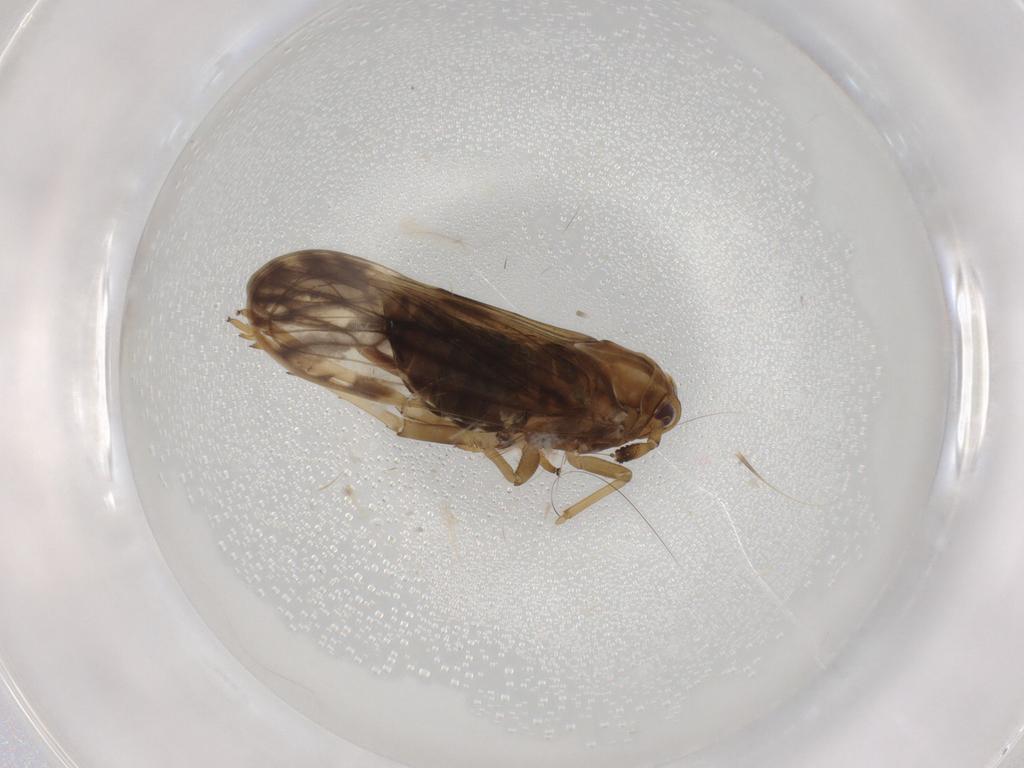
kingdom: Animalia
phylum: Arthropoda
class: Insecta
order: Hemiptera
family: Delphacidae
